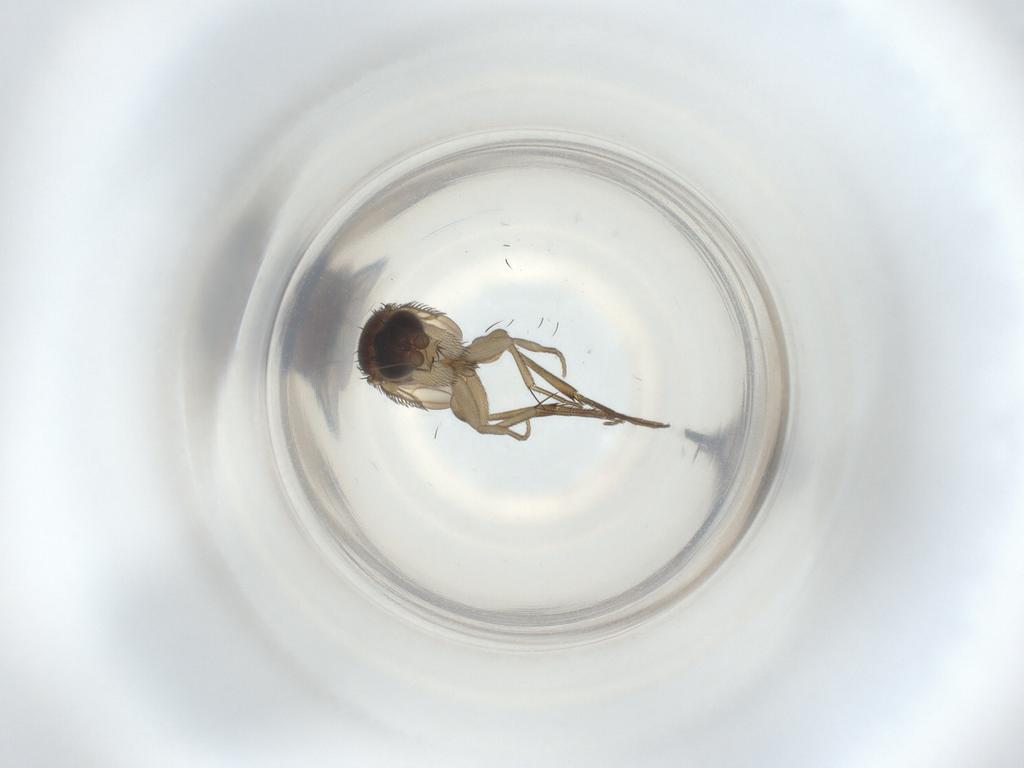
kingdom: Animalia
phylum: Arthropoda
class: Insecta
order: Diptera
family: Phoridae
